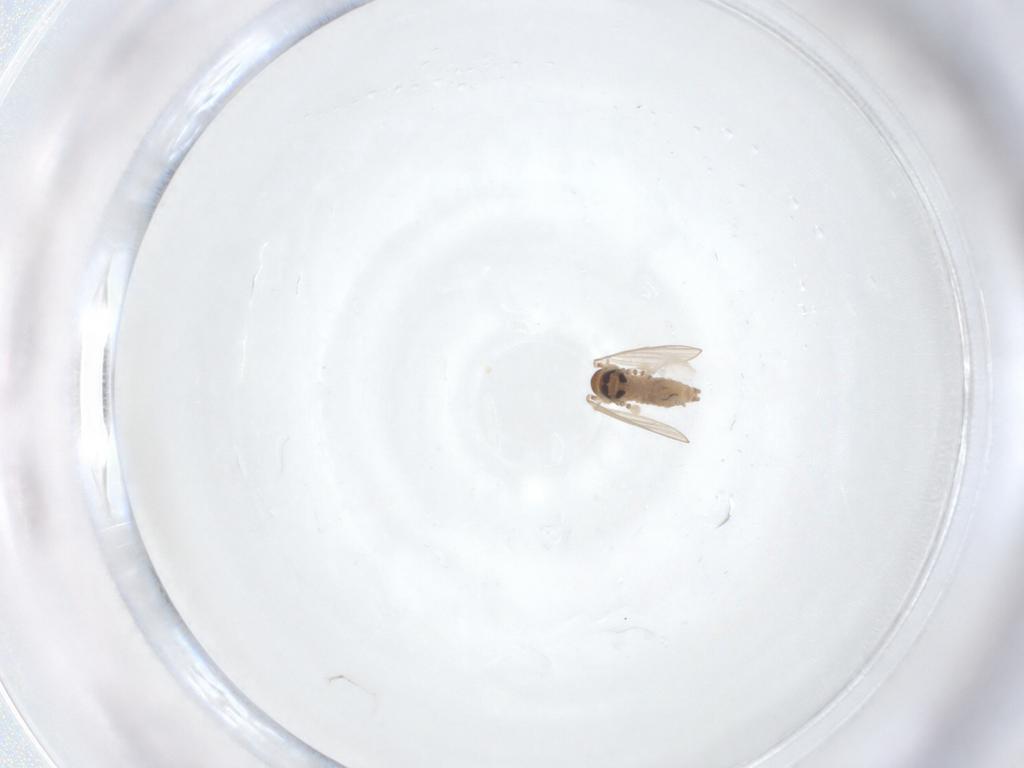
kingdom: Animalia
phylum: Arthropoda
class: Insecta
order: Diptera
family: Psychodidae
